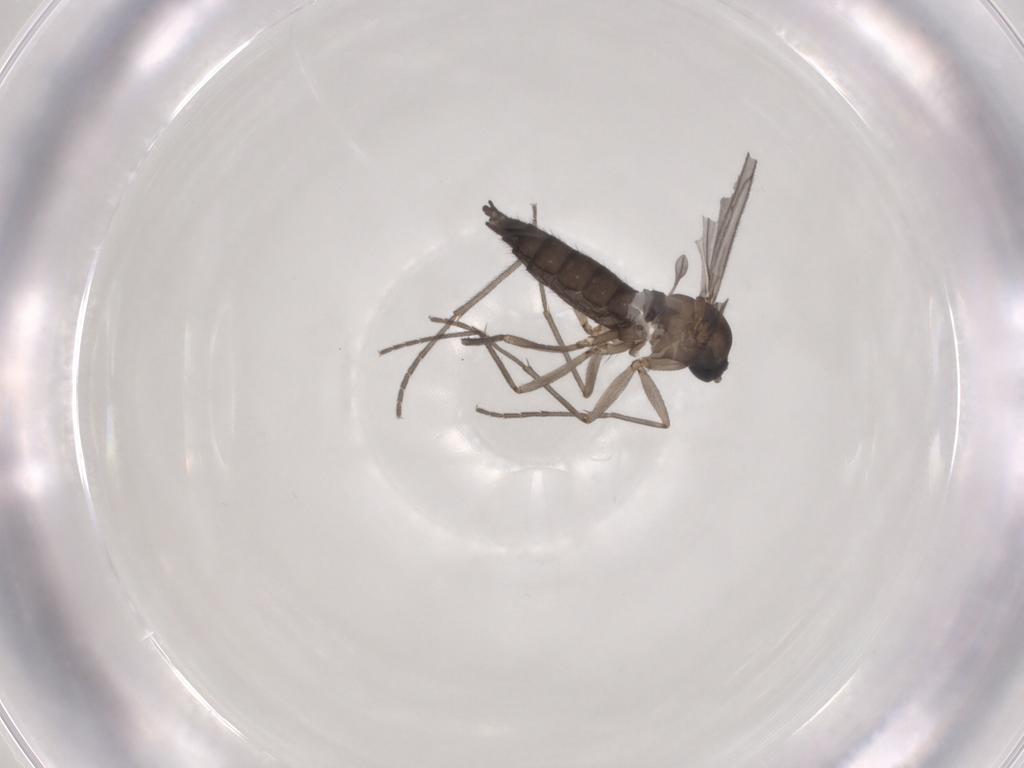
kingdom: Animalia
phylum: Arthropoda
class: Insecta
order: Diptera
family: Sciaridae
